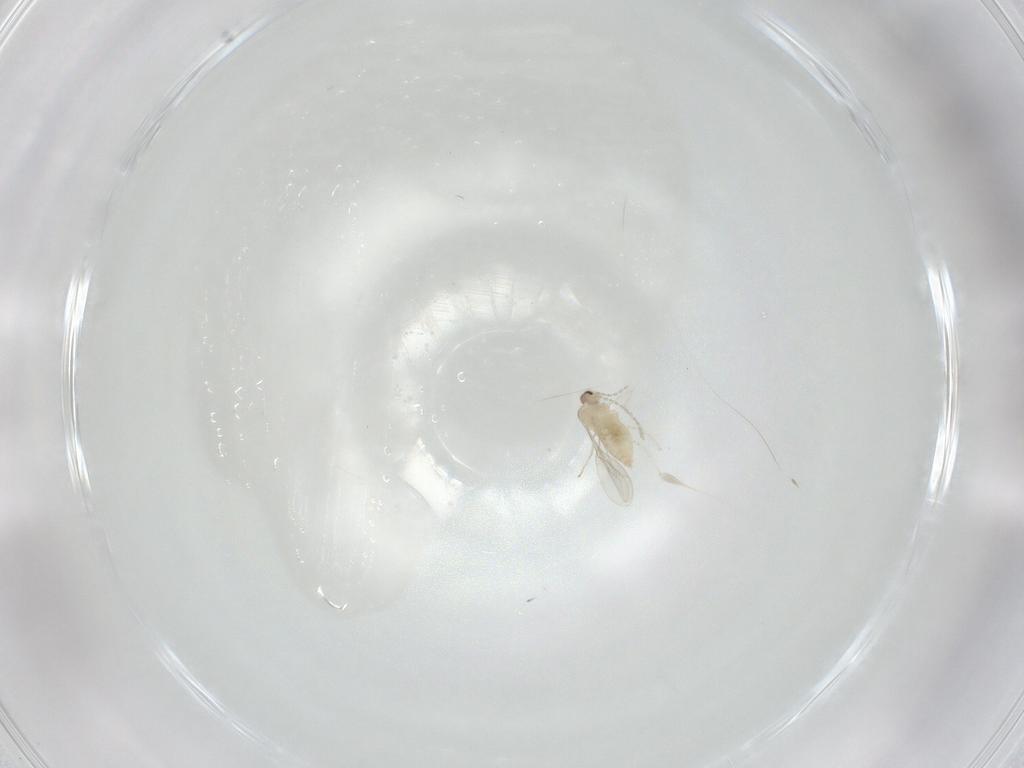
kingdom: Animalia
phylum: Arthropoda
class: Insecta
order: Diptera
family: Cecidomyiidae
